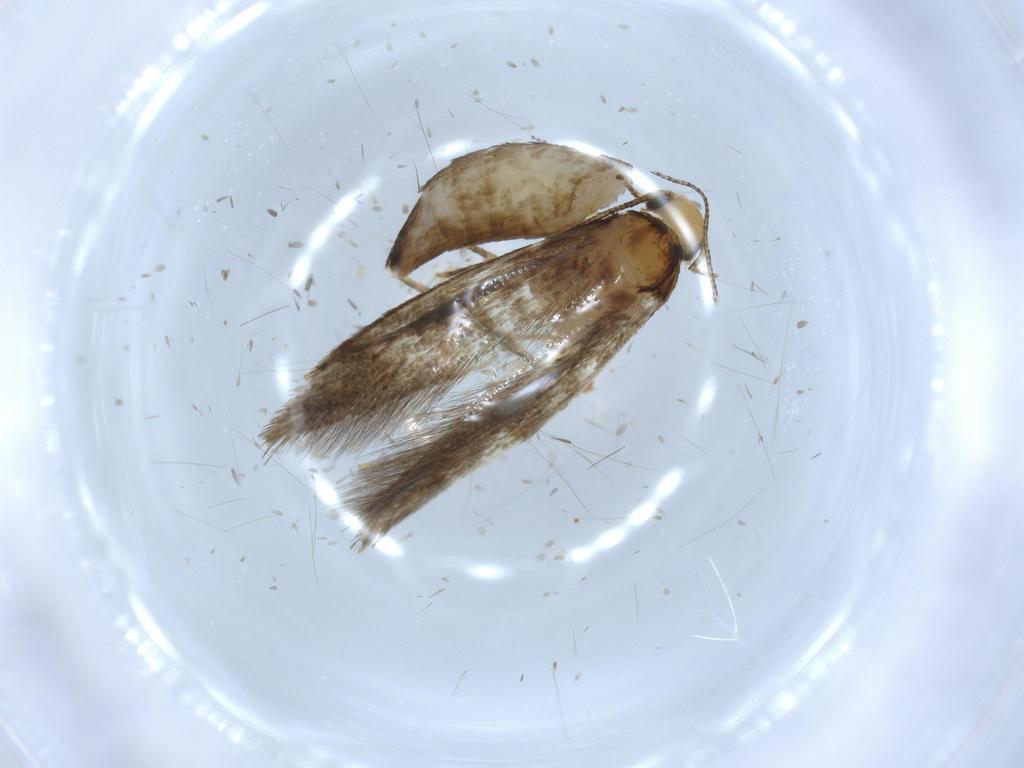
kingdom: Animalia
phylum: Arthropoda
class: Insecta
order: Lepidoptera
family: Tineidae
